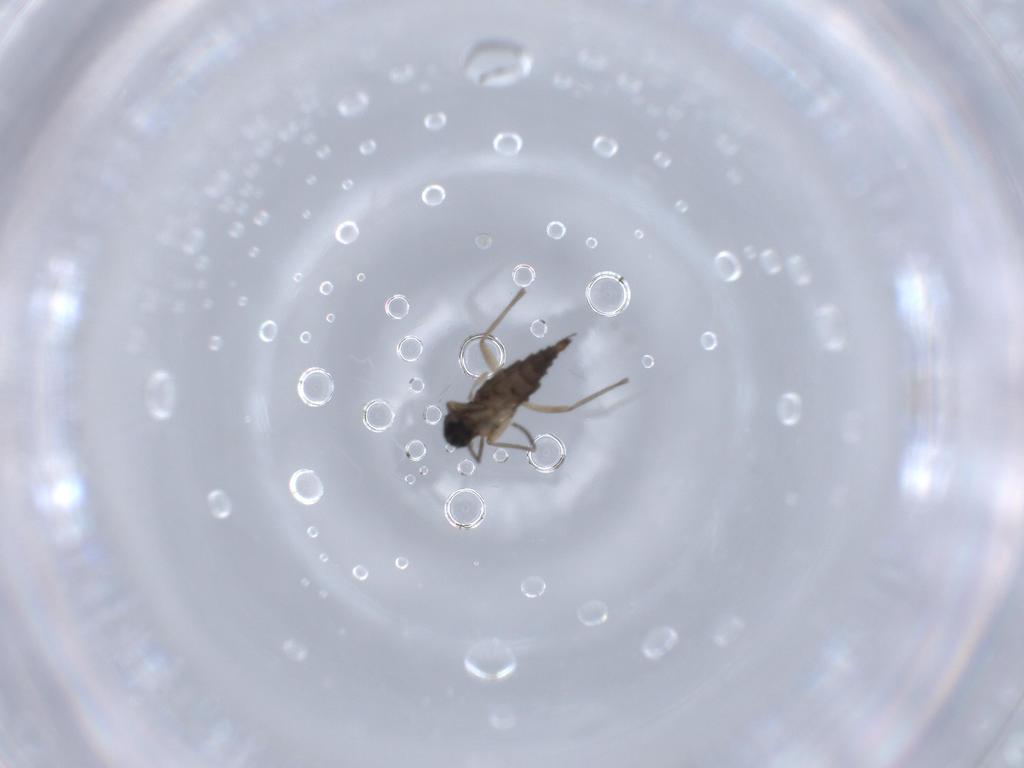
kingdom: Animalia
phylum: Arthropoda
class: Insecta
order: Diptera
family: Sciaridae
